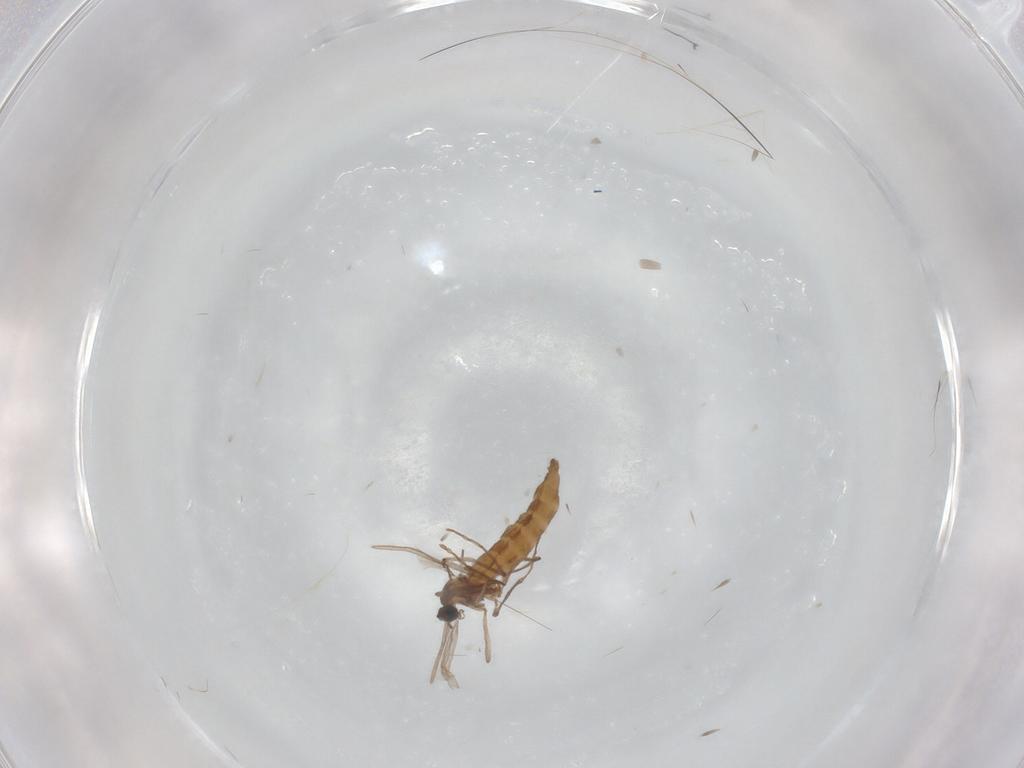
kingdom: Animalia
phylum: Arthropoda
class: Insecta
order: Diptera
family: Cecidomyiidae
